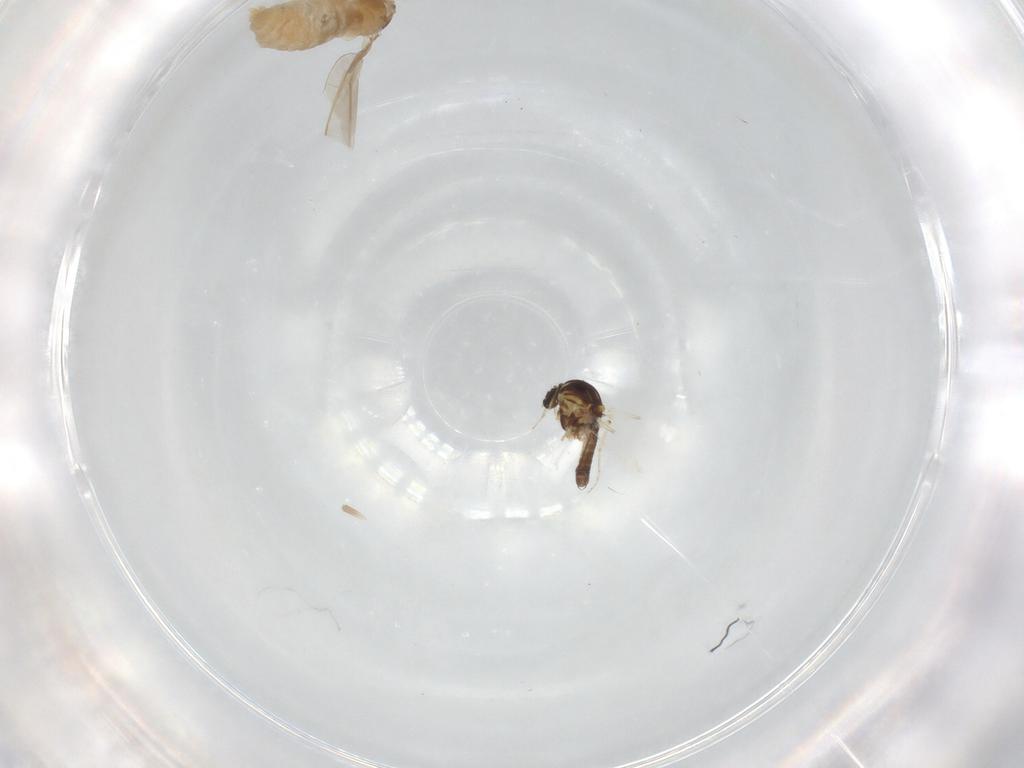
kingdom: Animalia
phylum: Arthropoda
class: Insecta
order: Diptera
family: Cecidomyiidae
